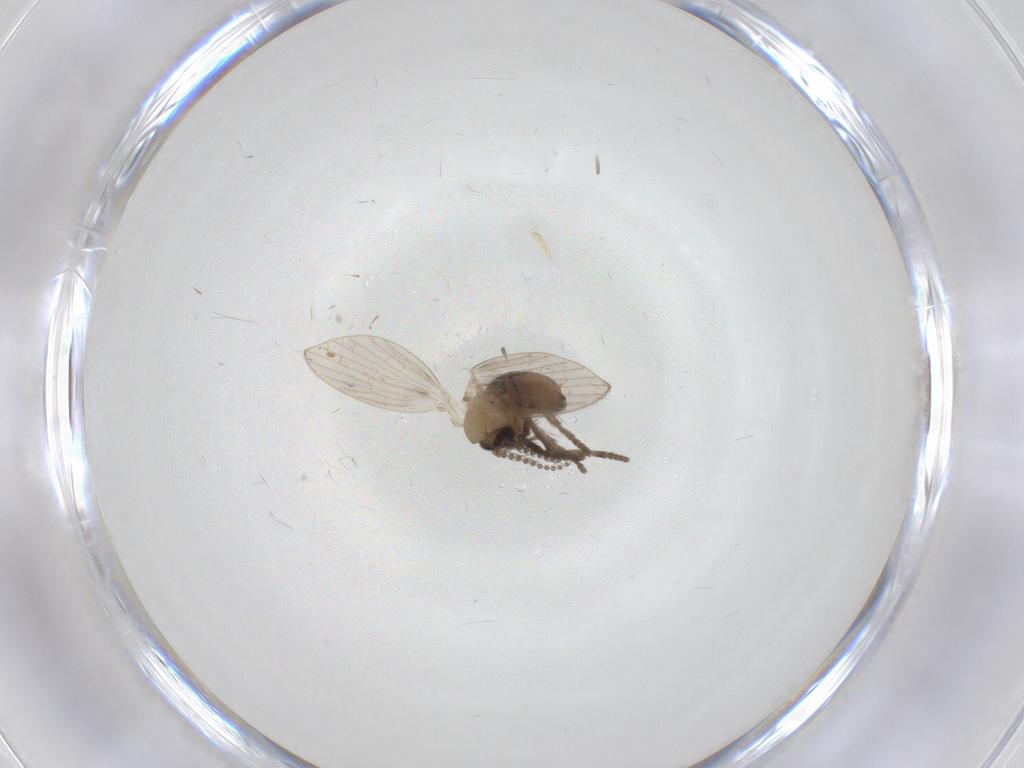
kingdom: Animalia
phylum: Arthropoda
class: Insecta
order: Diptera
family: Psychodidae
